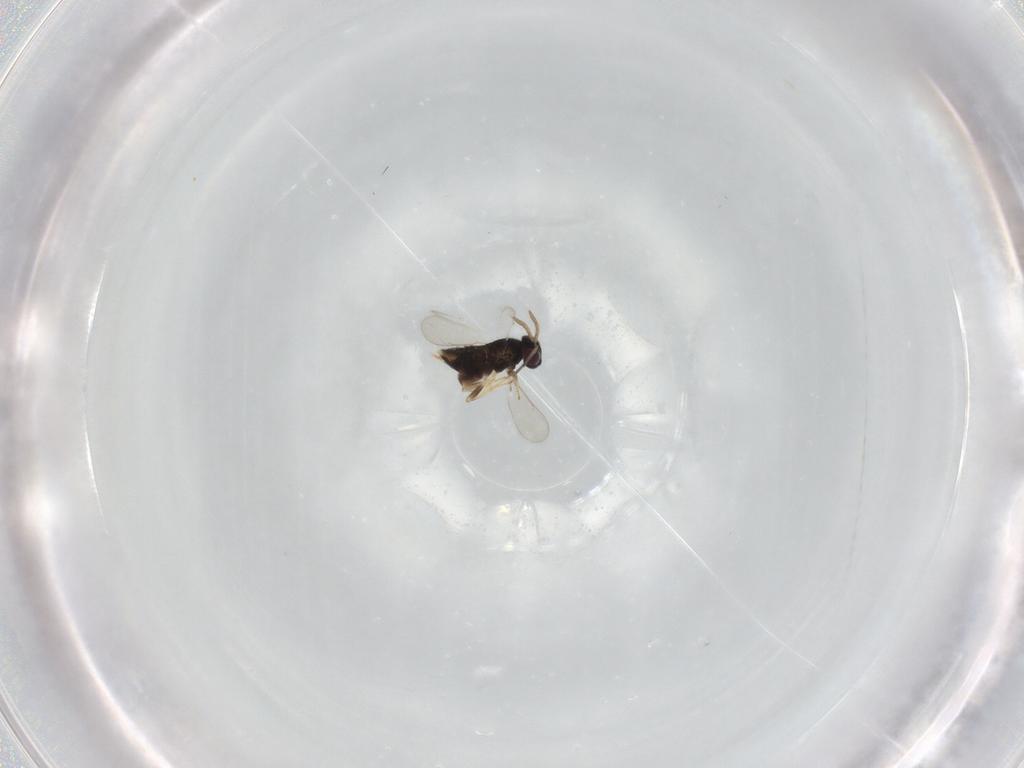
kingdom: Animalia
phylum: Arthropoda
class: Insecta
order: Hymenoptera
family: Aphelinidae
